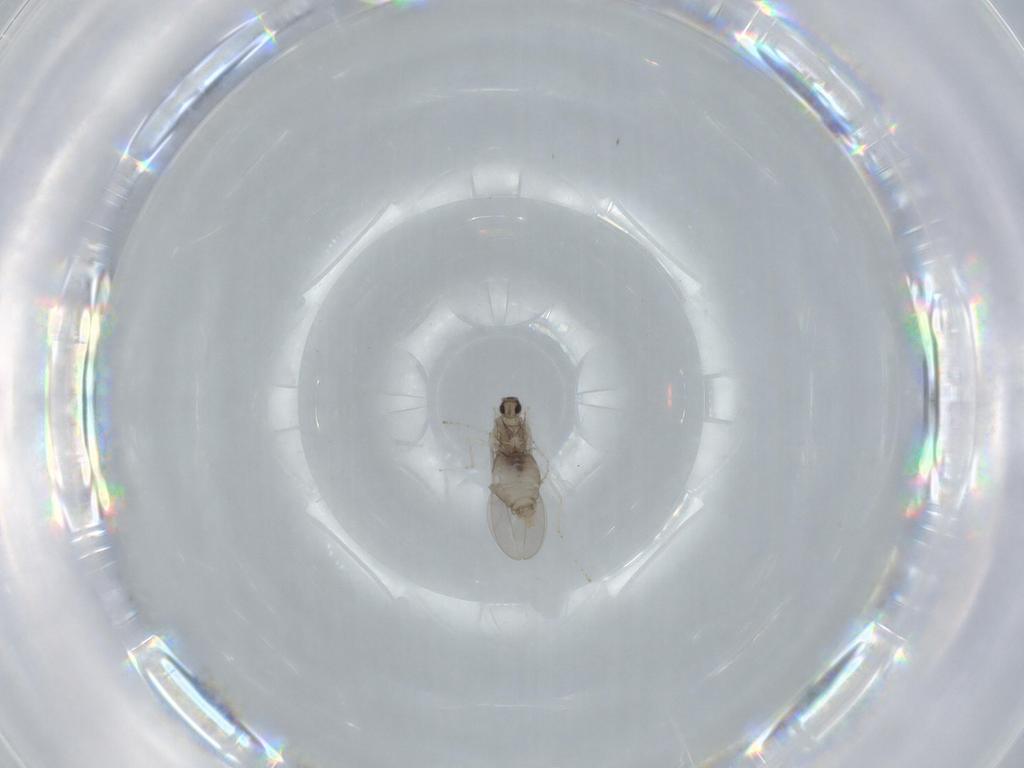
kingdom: Animalia
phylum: Arthropoda
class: Insecta
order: Diptera
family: Cecidomyiidae
